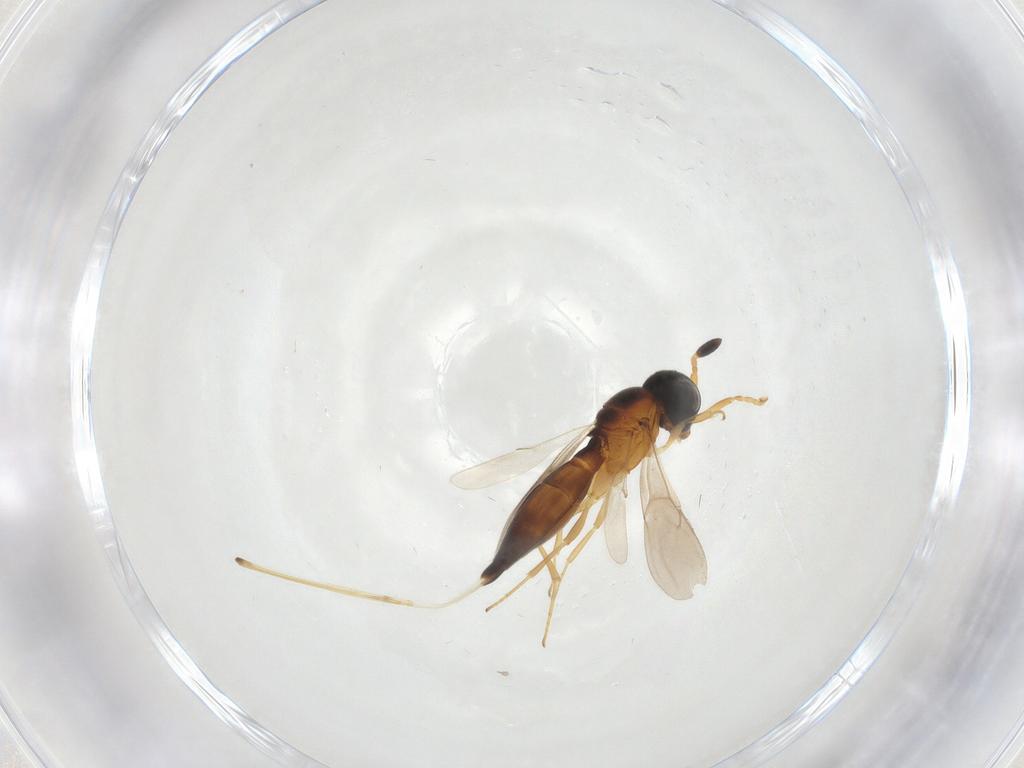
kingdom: Animalia
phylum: Arthropoda
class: Insecta
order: Hymenoptera
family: Scelionidae
